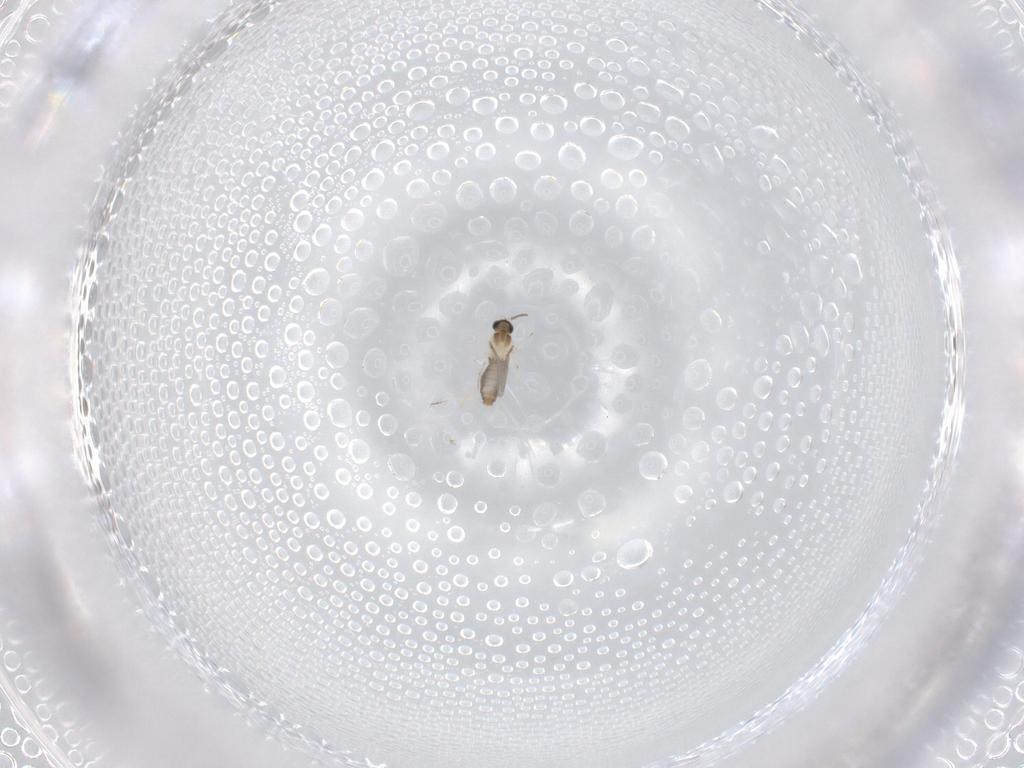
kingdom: Animalia
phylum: Arthropoda
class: Insecta
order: Diptera
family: Cecidomyiidae
